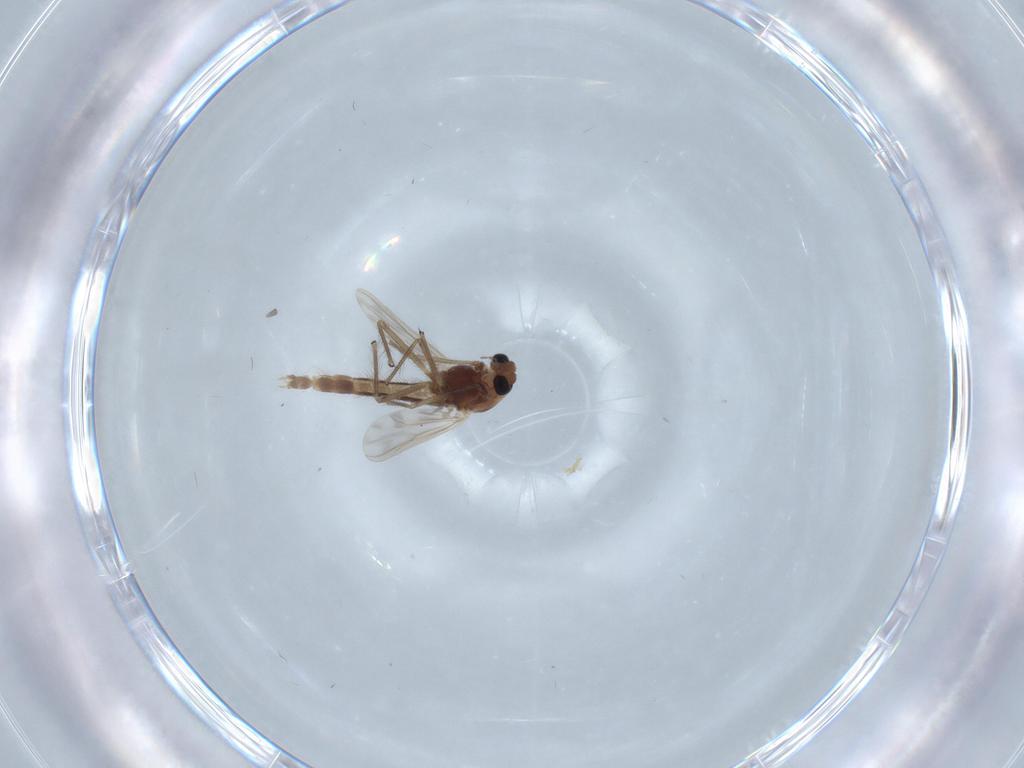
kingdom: Animalia
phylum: Arthropoda
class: Insecta
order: Diptera
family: Chironomidae
